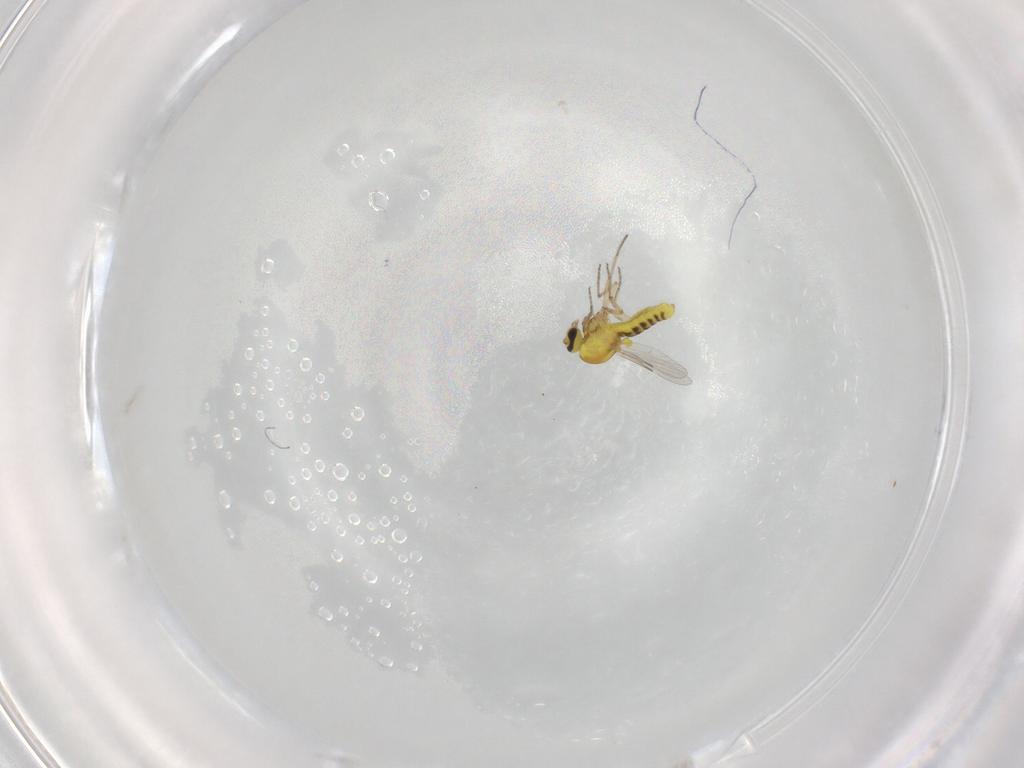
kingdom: Animalia
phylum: Arthropoda
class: Insecta
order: Diptera
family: Ceratopogonidae
